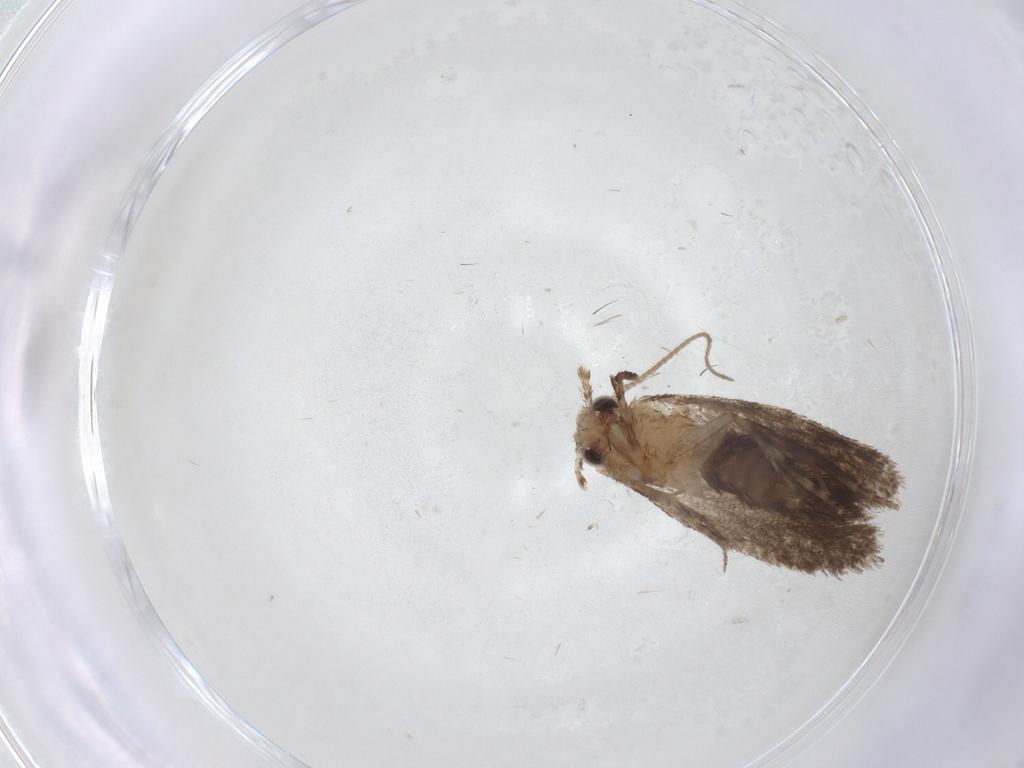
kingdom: Animalia
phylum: Arthropoda
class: Insecta
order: Lepidoptera
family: Dryadaulidae
